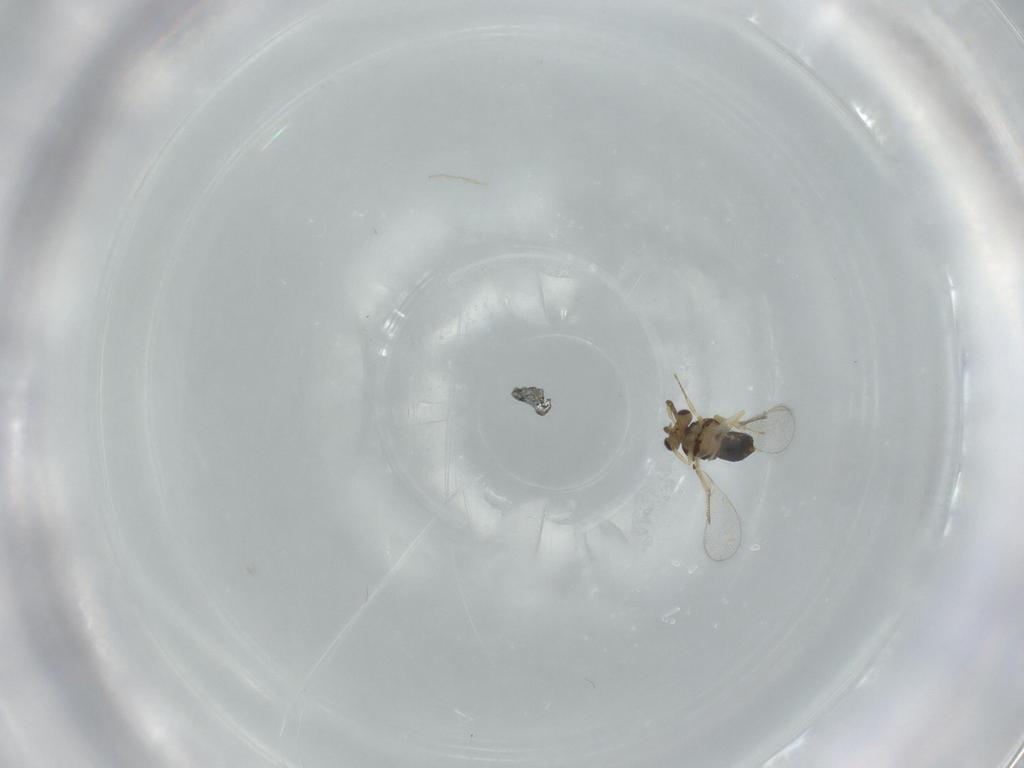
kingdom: Animalia
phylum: Arthropoda
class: Insecta
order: Hymenoptera
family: Aphelinidae
